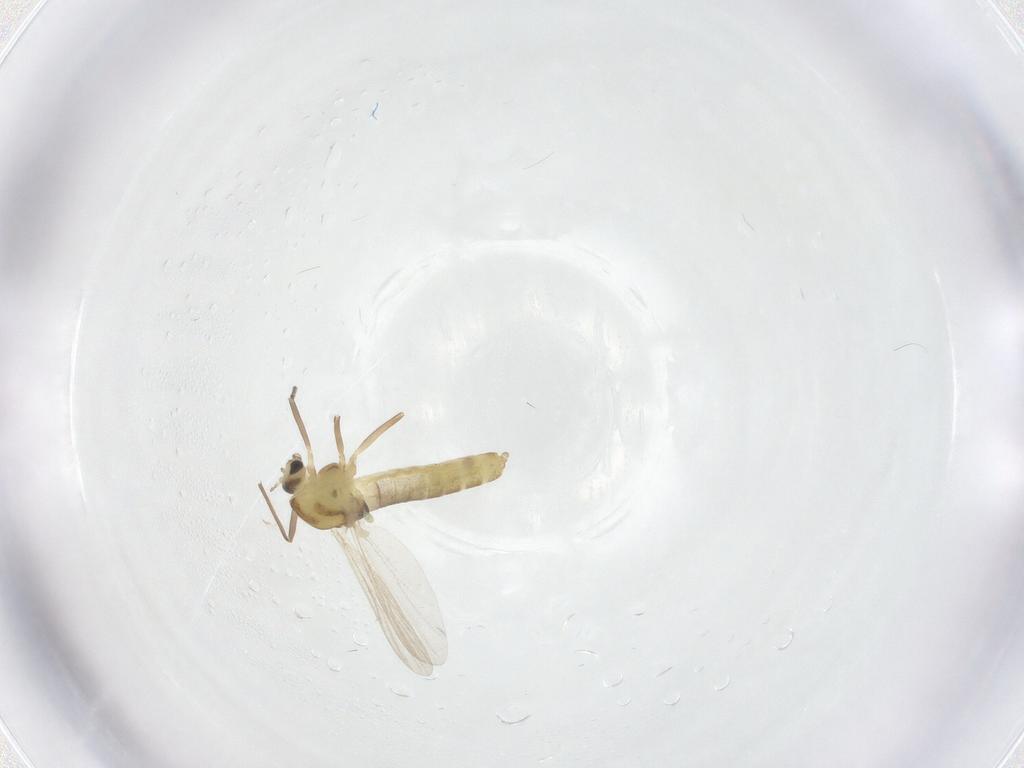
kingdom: Animalia
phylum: Arthropoda
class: Insecta
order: Diptera
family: Chironomidae
